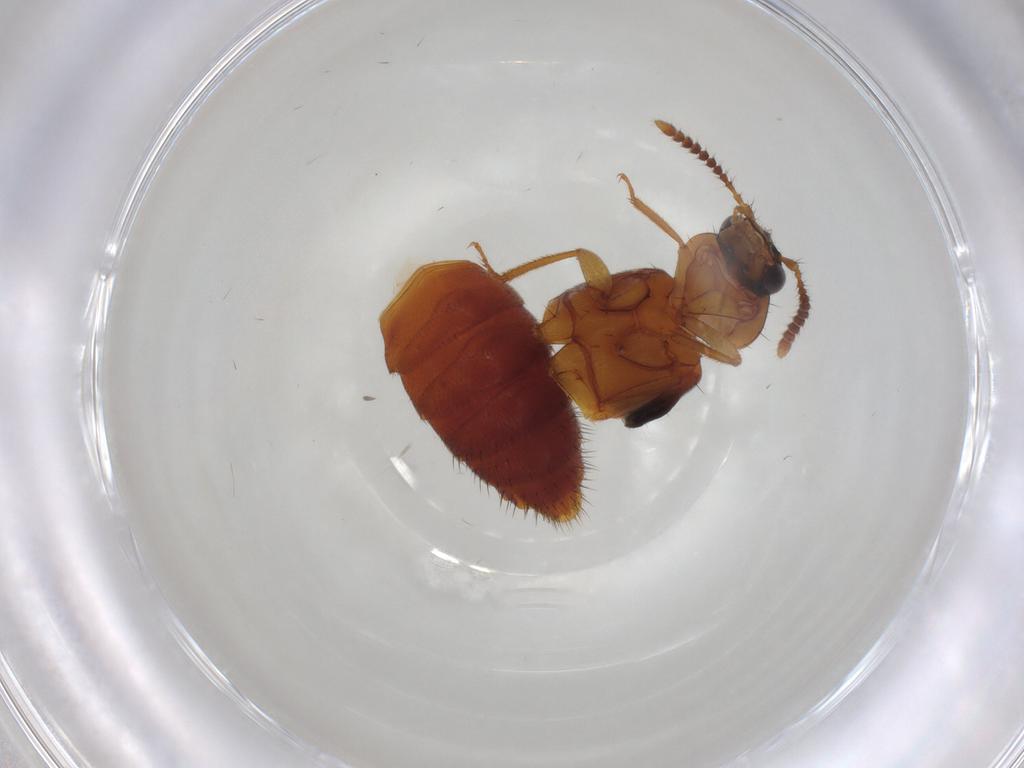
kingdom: Animalia
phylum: Arthropoda
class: Insecta
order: Coleoptera
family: Staphylinidae
